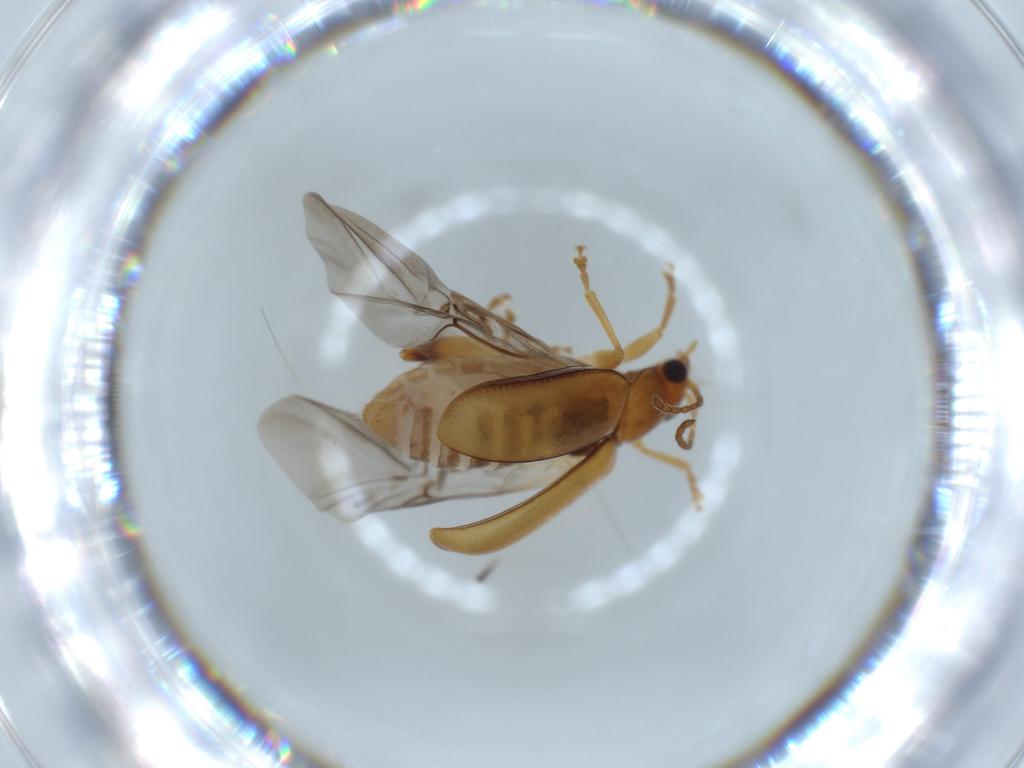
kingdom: Animalia
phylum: Arthropoda
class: Insecta
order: Coleoptera
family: Chrysomelidae
